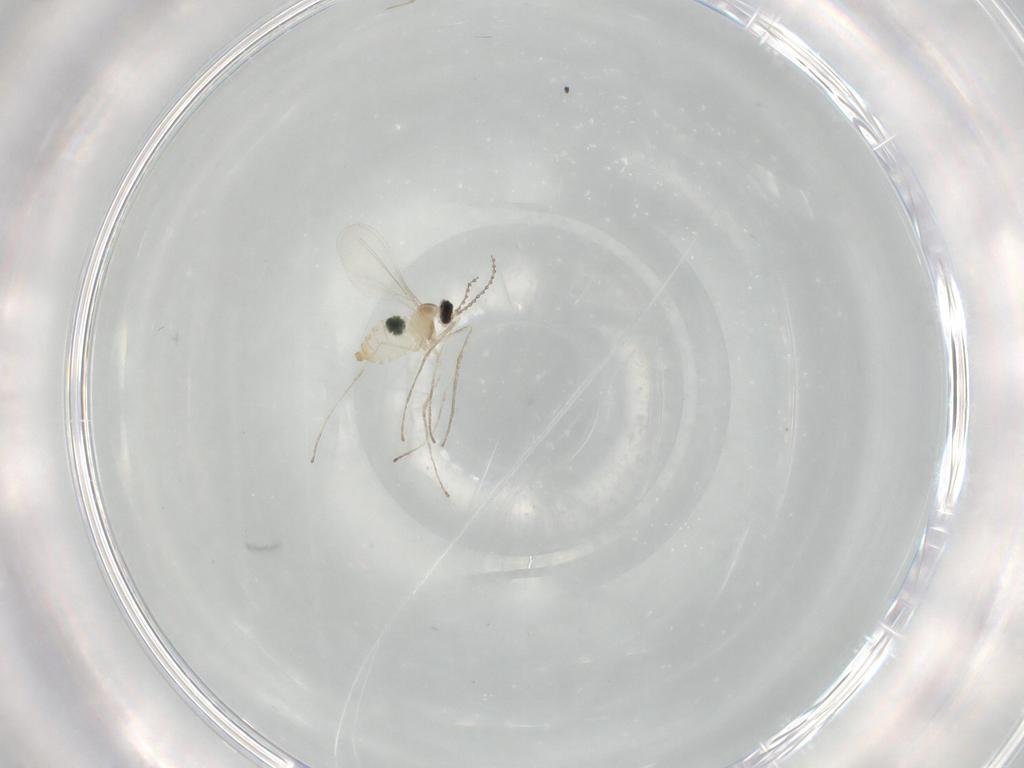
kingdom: Animalia
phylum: Arthropoda
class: Insecta
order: Diptera
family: Cecidomyiidae
